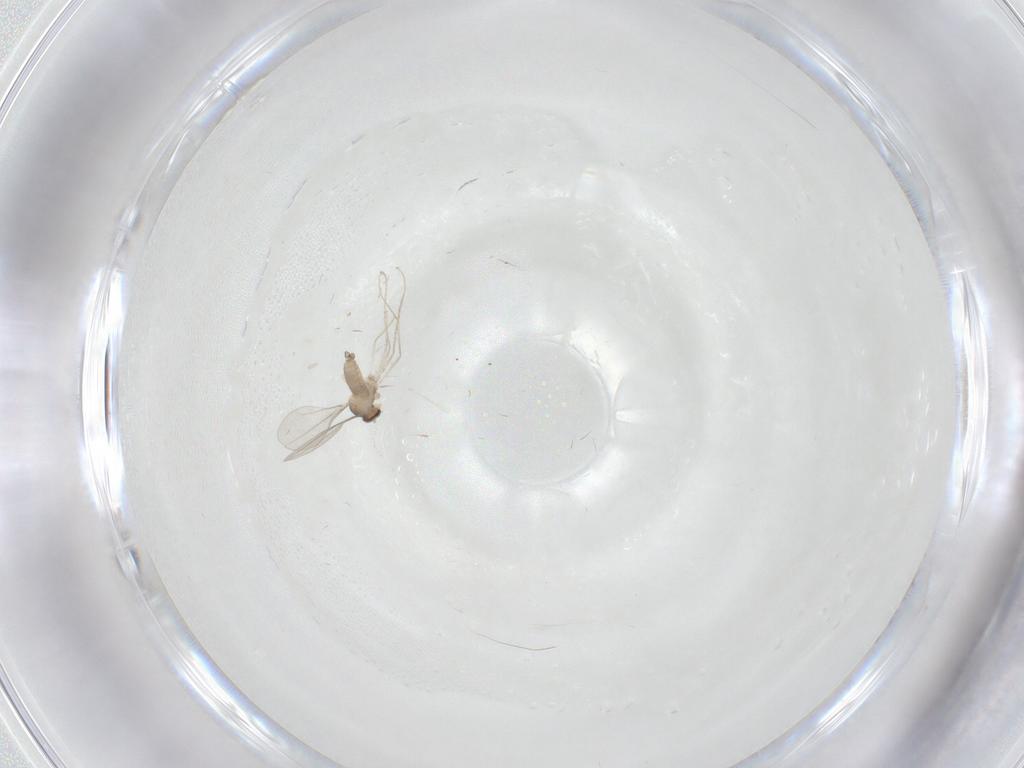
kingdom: Animalia
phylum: Arthropoda
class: Insecta
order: Diptera
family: Cecidomyiidae
